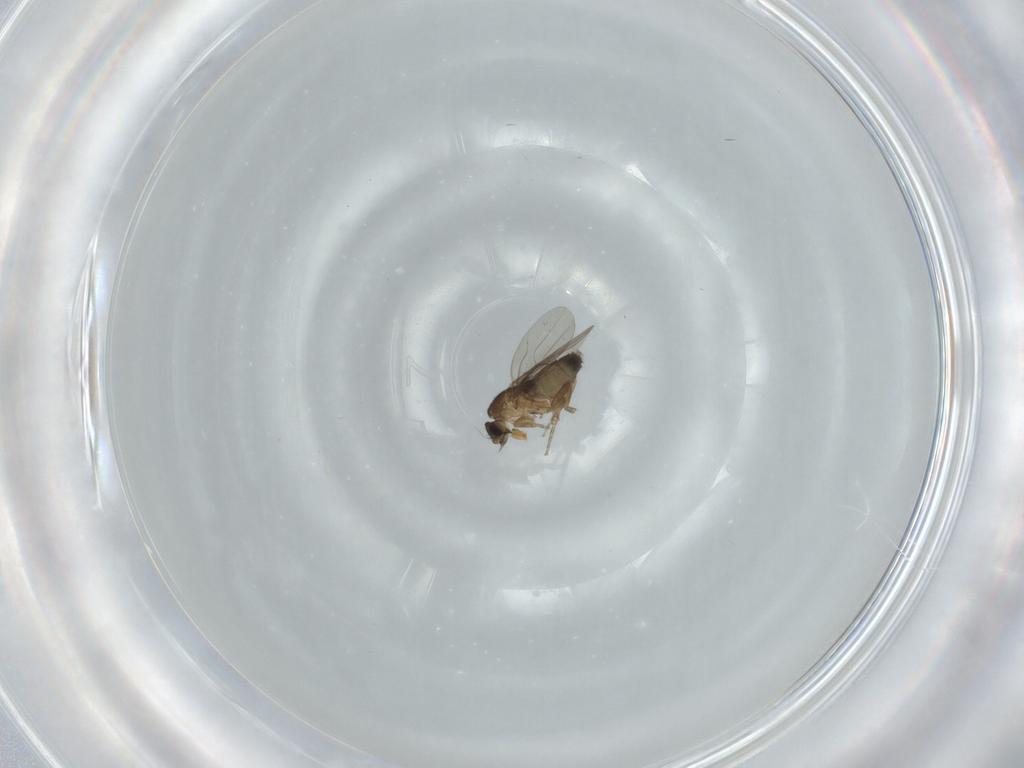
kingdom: Animalia
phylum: Arthropoda
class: Insecta
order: Diptera
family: Phoridae
